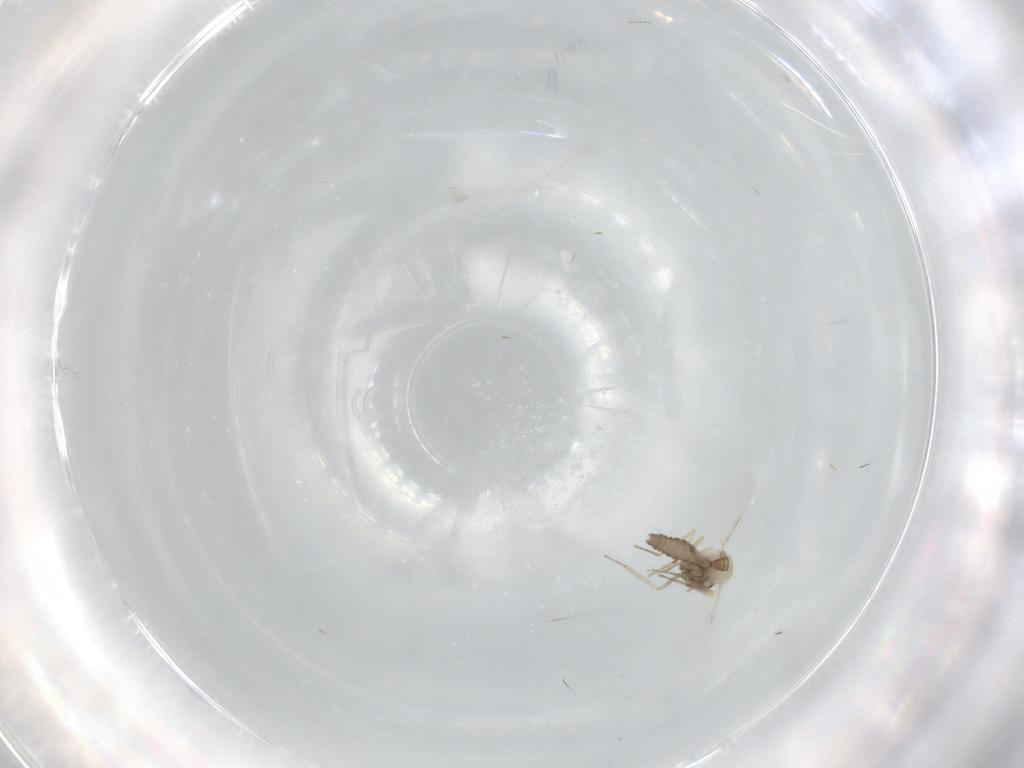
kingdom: Animalia
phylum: Arthropoda
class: Insecta
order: Diptera
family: Ceratopogonidae
